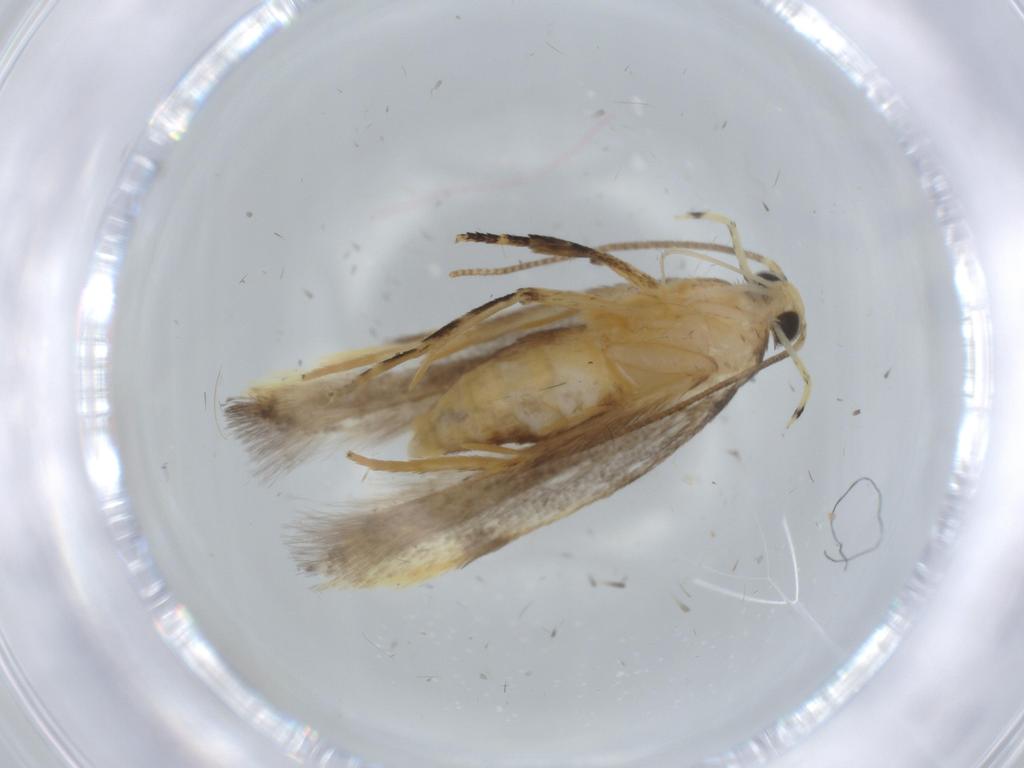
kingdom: Animalia
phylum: Arthropoda
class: Insecta
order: Lepidoptera
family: Autostichidae
